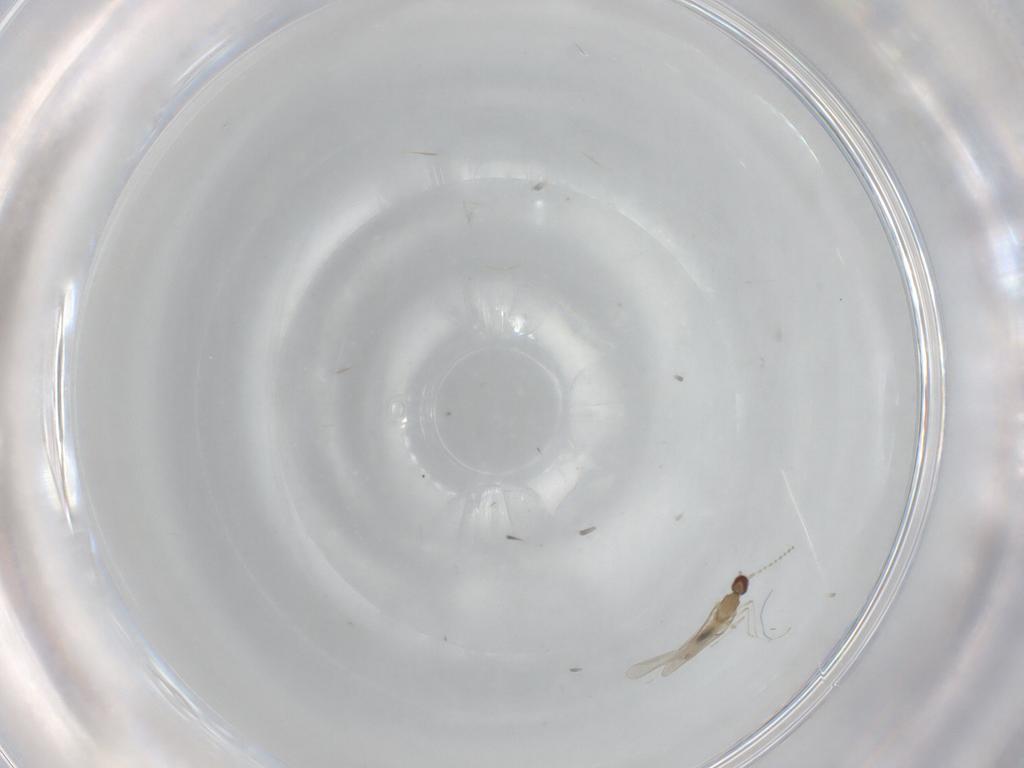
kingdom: Animalia
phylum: Arthropoda
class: Insecta
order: Diptera
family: Cecidomyiidae
